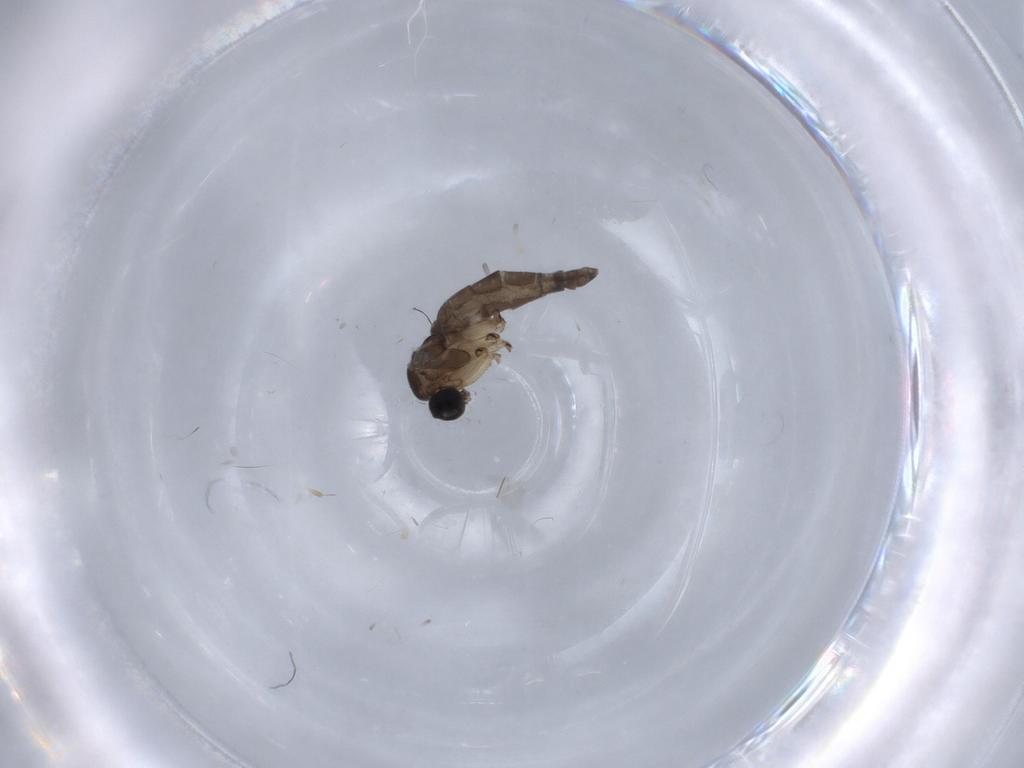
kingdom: Animalia
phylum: Arthropoda
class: Insecta
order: Diptera
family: Sciaridae
